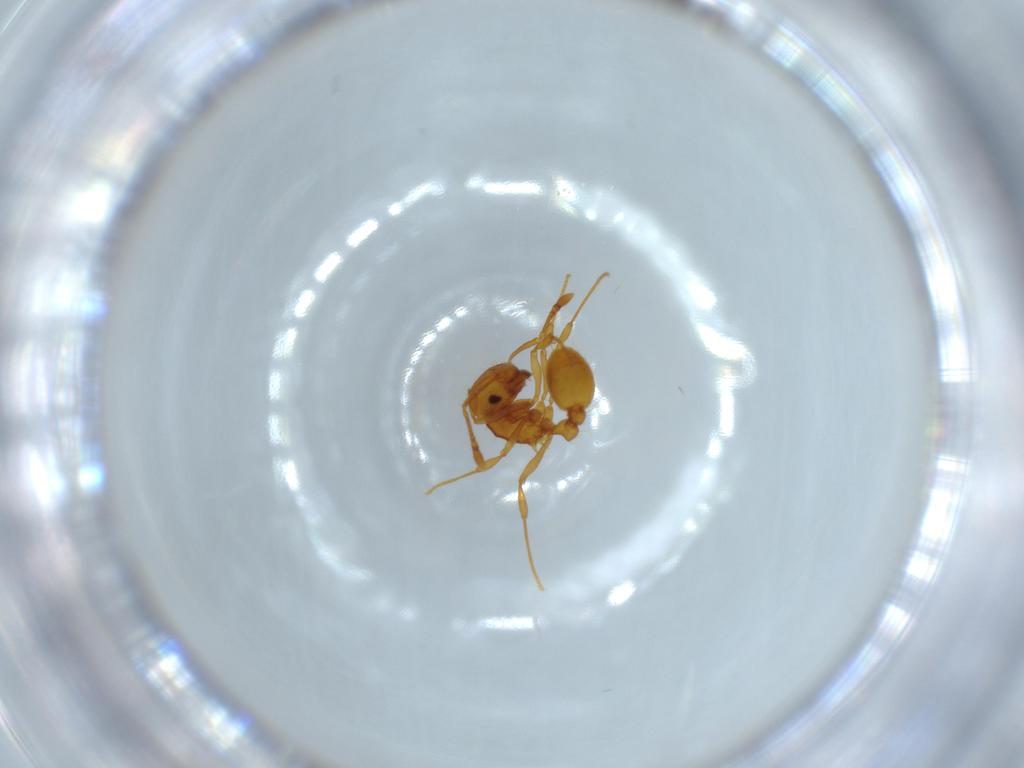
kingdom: Animalia
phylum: Arthropoda
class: Insecta
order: Hymenoptera
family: Formicidae
